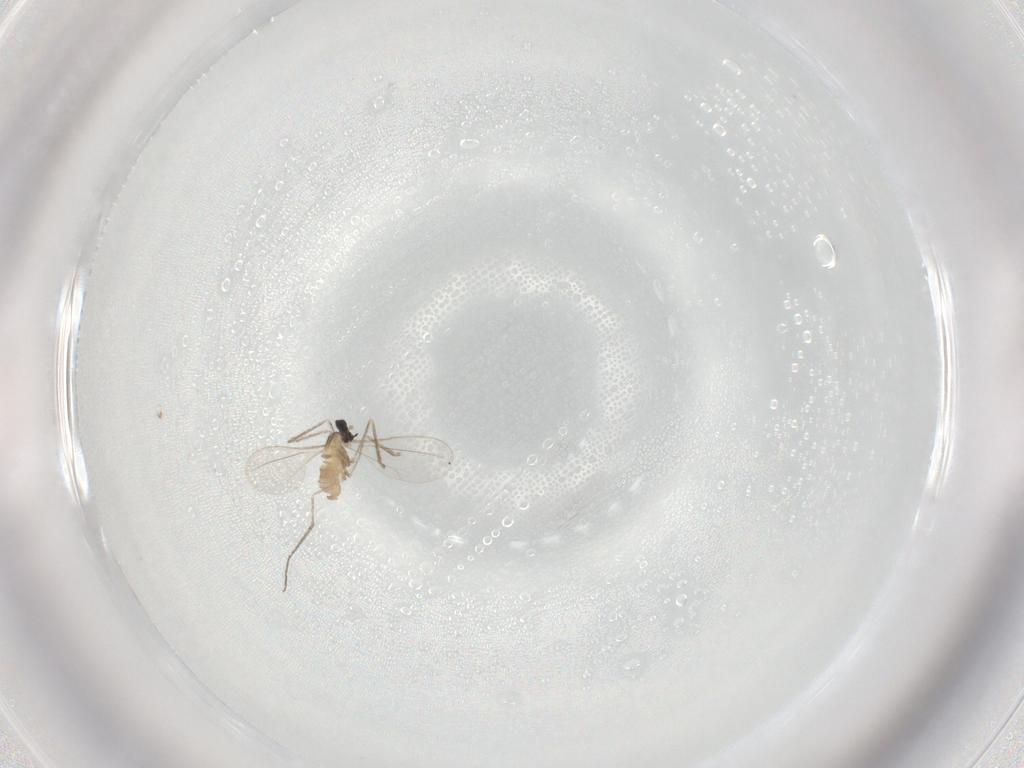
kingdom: Animalia
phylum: Arthropoda
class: Insecta
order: Diptera
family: Cecidomyiidae
